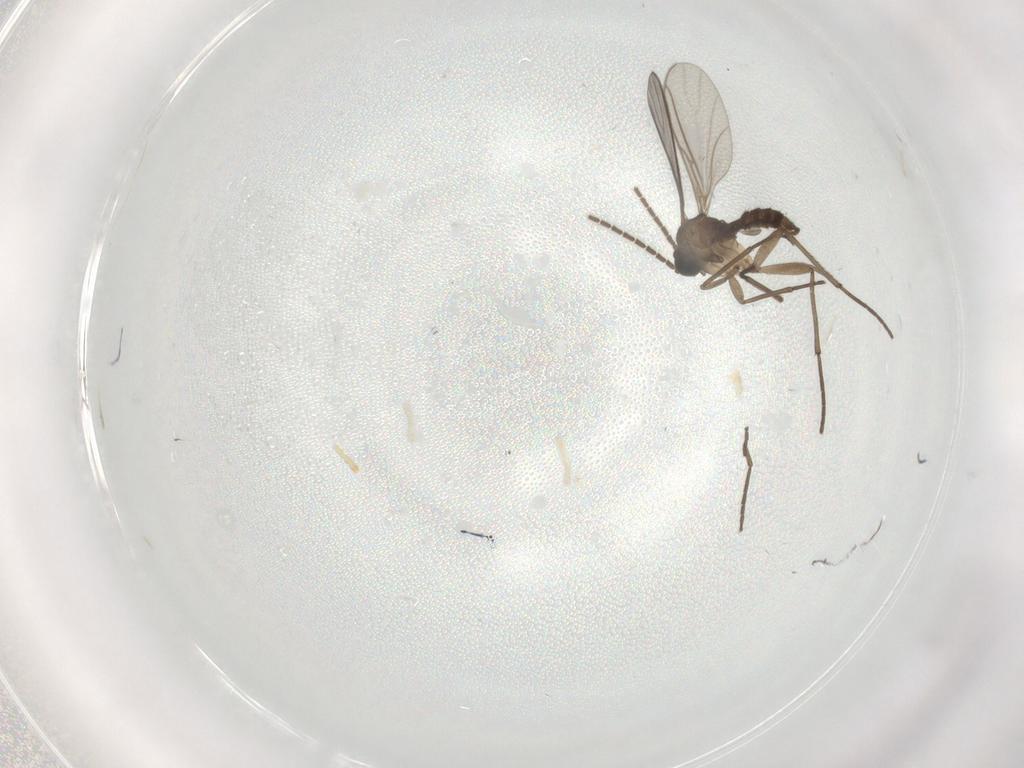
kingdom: Animalia
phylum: Arthropoda
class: Insecta
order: Diptera
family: Sciaridae
